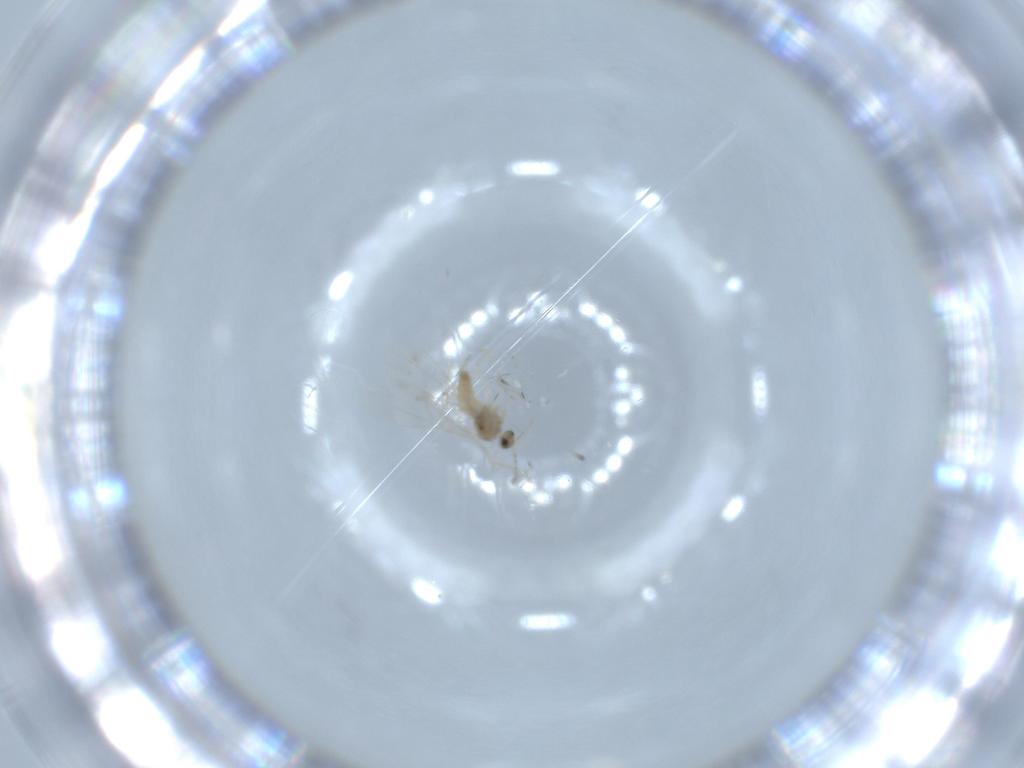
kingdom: Animalia
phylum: Arthropoda
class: Insecta
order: Diptera
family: Cecidomyiidae
